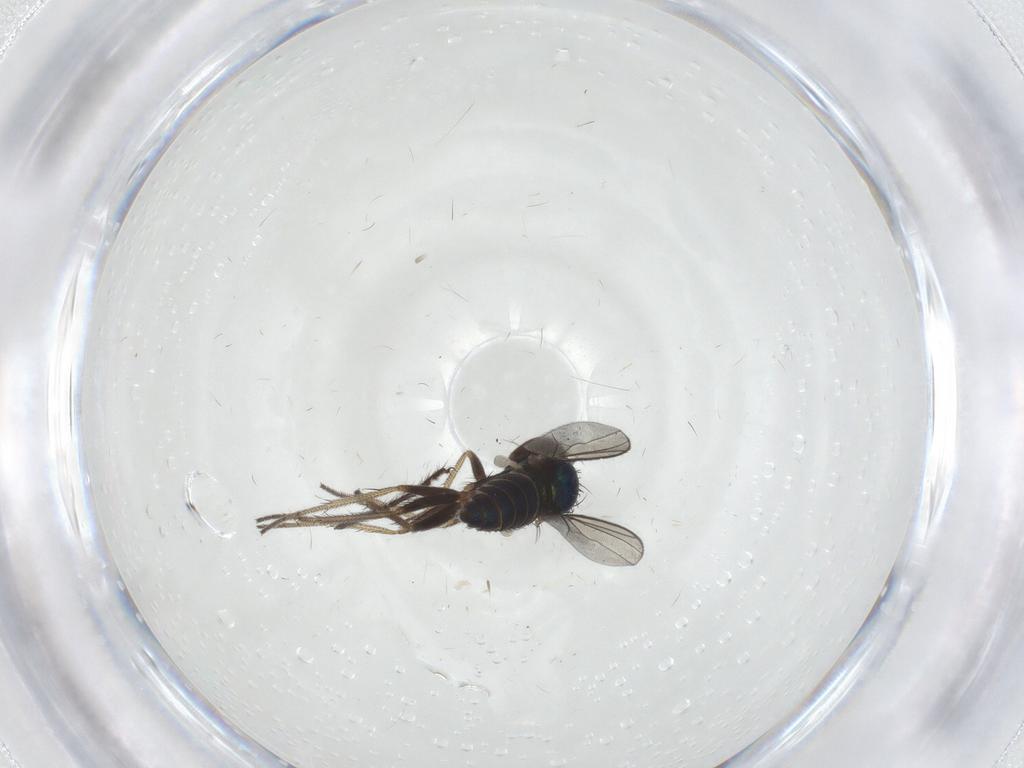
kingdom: Animalia
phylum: Arthropoda
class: Insecta
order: Diptera
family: Limoniidae
